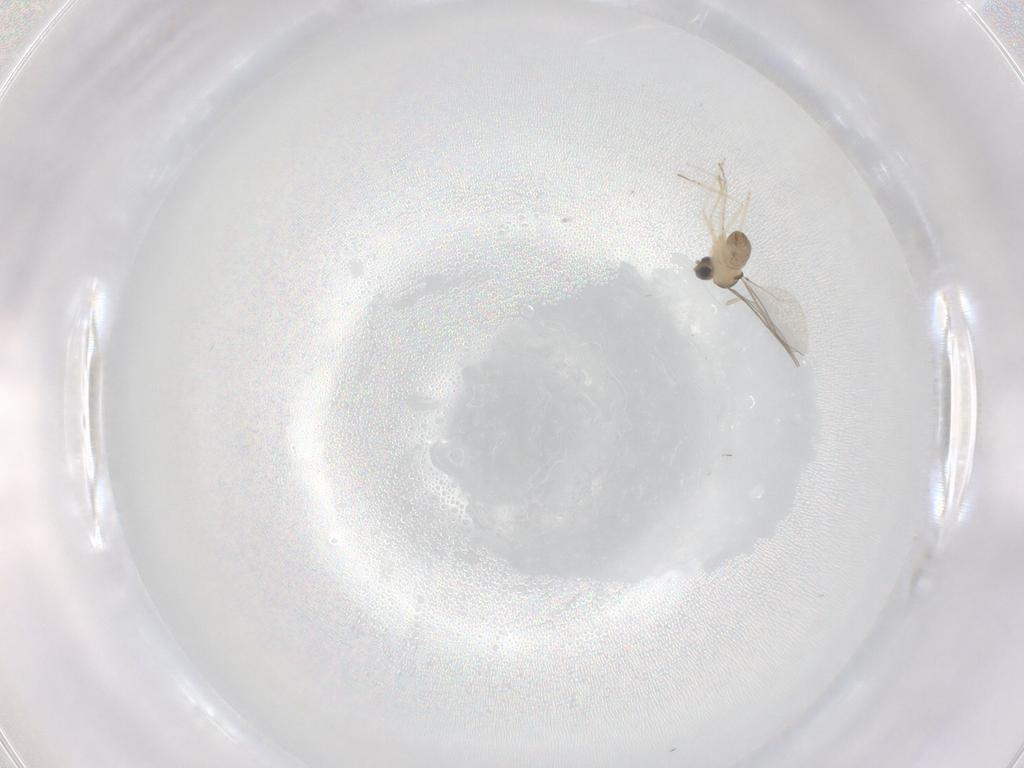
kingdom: Animalia
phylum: Arthropoda
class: Insecta
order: Diptera
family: Cecidomyiidae
